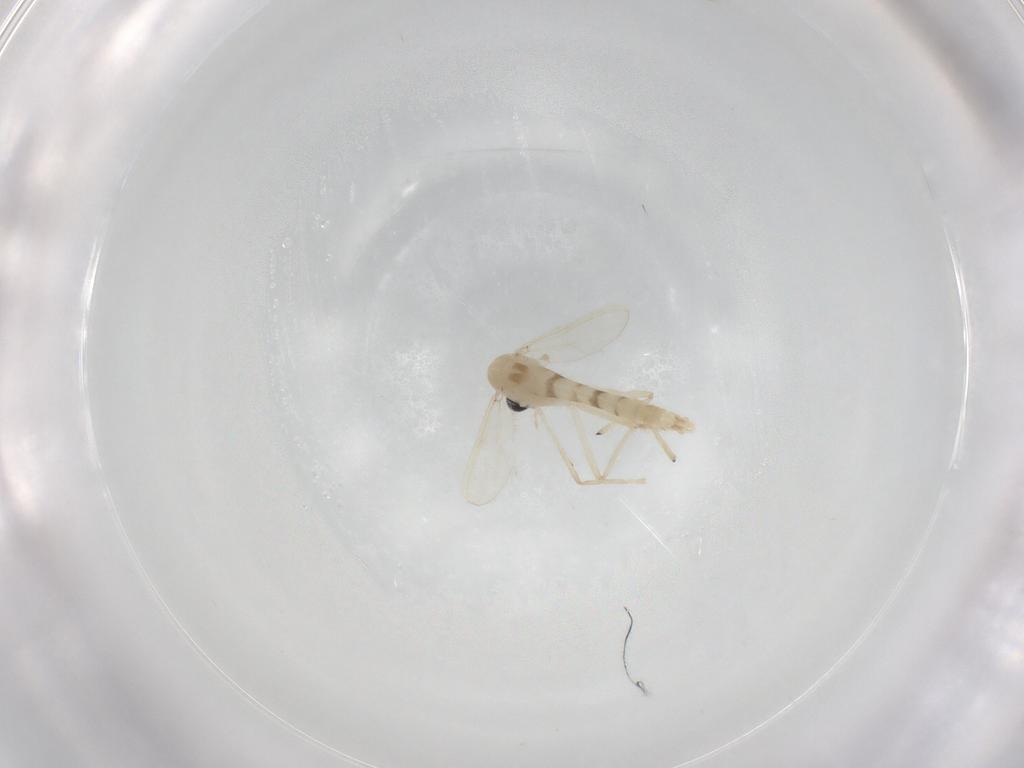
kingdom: Animalia
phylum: Arthropoda
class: Insecta
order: Diptera
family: Chironomidae
